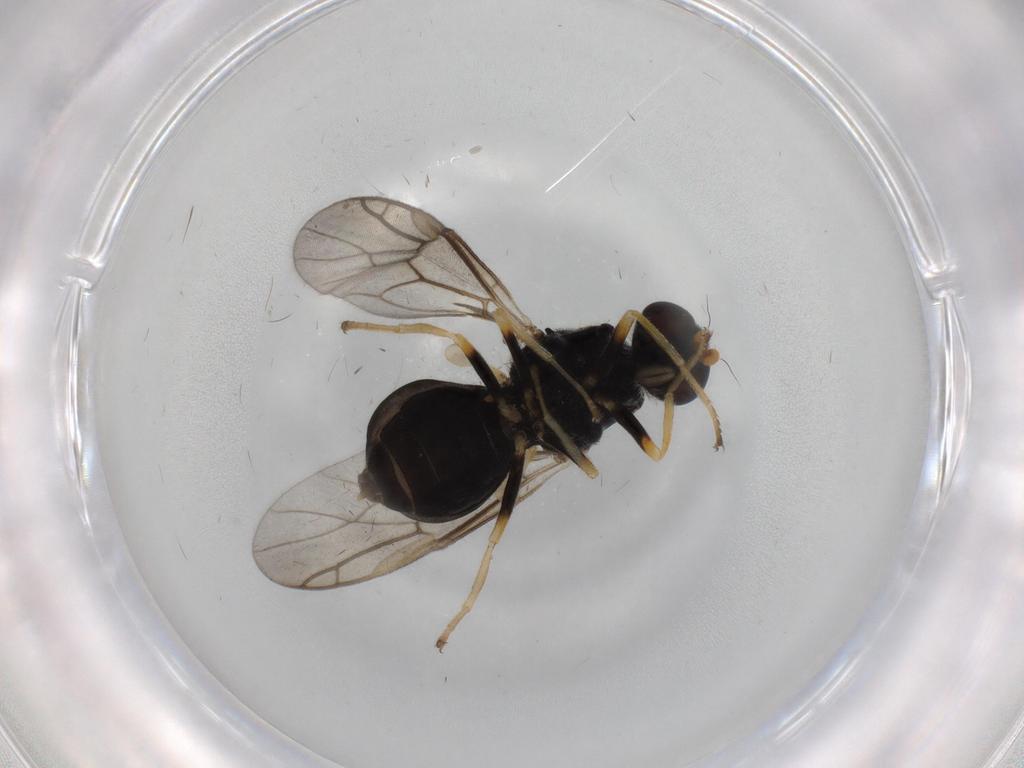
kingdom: Animalia
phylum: Arthropoda
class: Insecta
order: Diptera
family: Stratiomyidae
